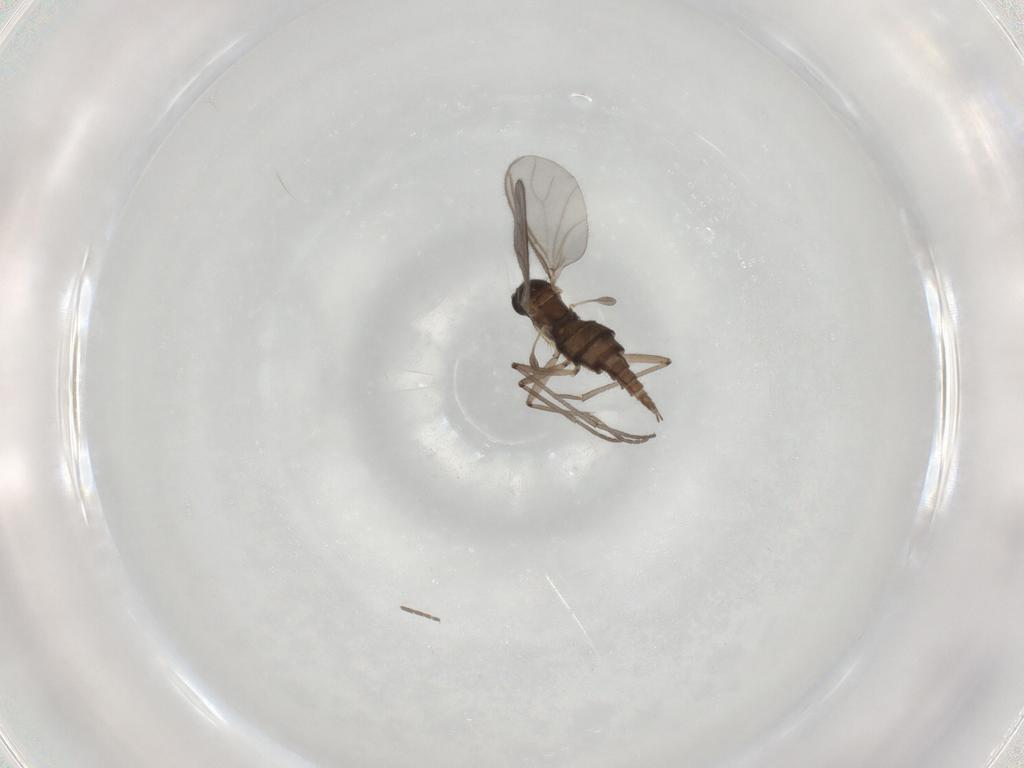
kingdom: Animalia
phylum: Arthropoda
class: Insecta
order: Diptera
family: Sciaridae
